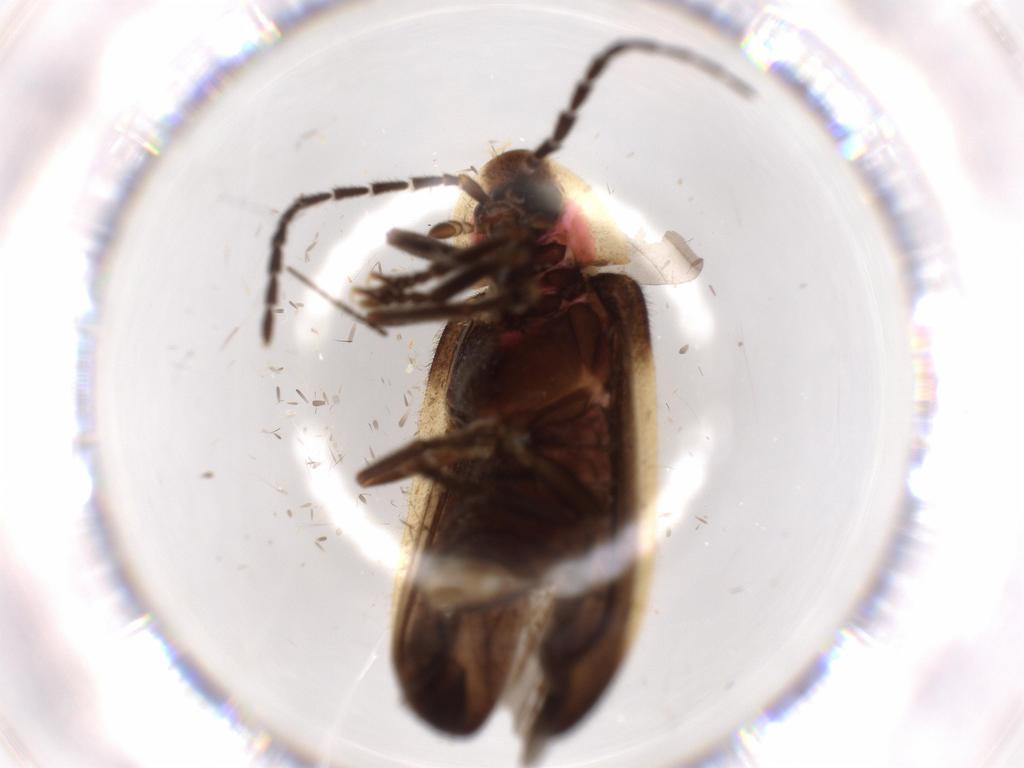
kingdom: Animalia
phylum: Arthropoda
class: Insecta
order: Coleoptera
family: Lampyridae
